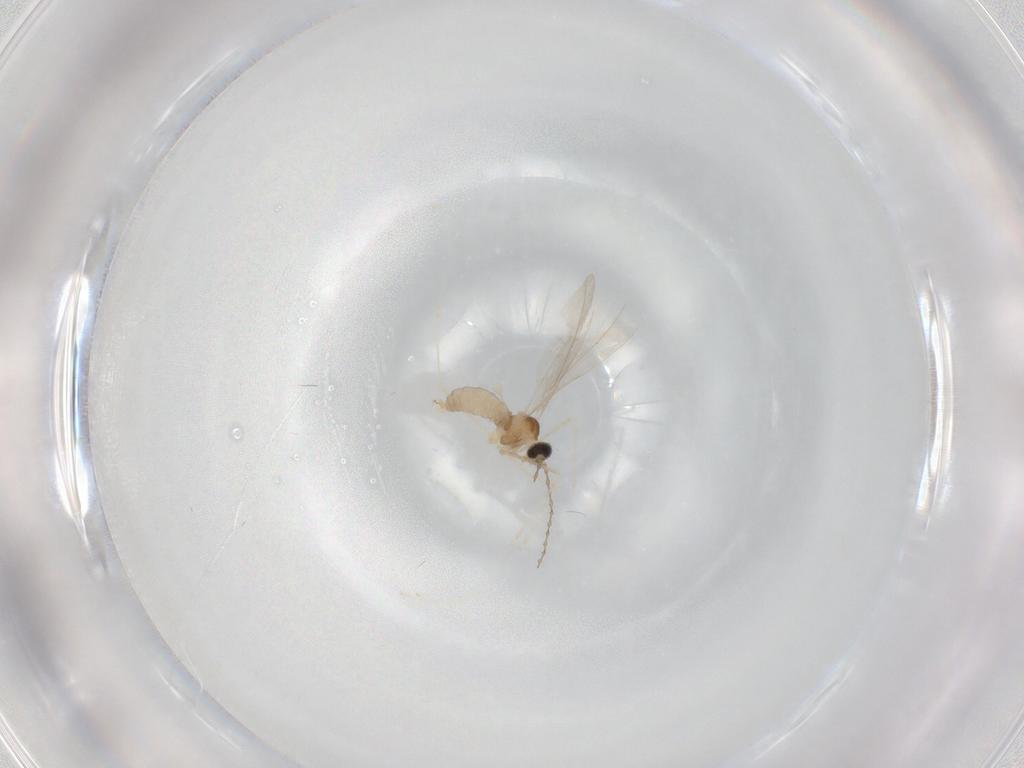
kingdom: Animalia
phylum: Arthropoda
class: Insecta
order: Diptera
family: Cecidomyiidae
